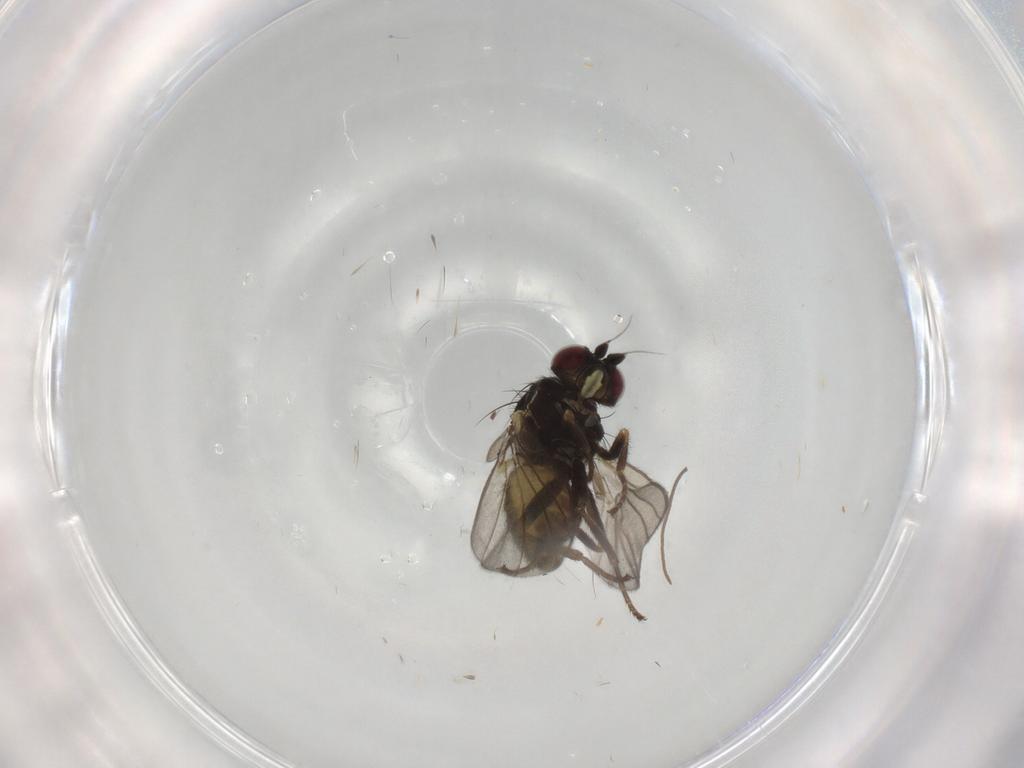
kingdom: Animalia
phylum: Arthropoda
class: Insecta
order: Diptera
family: Agromyzidae
